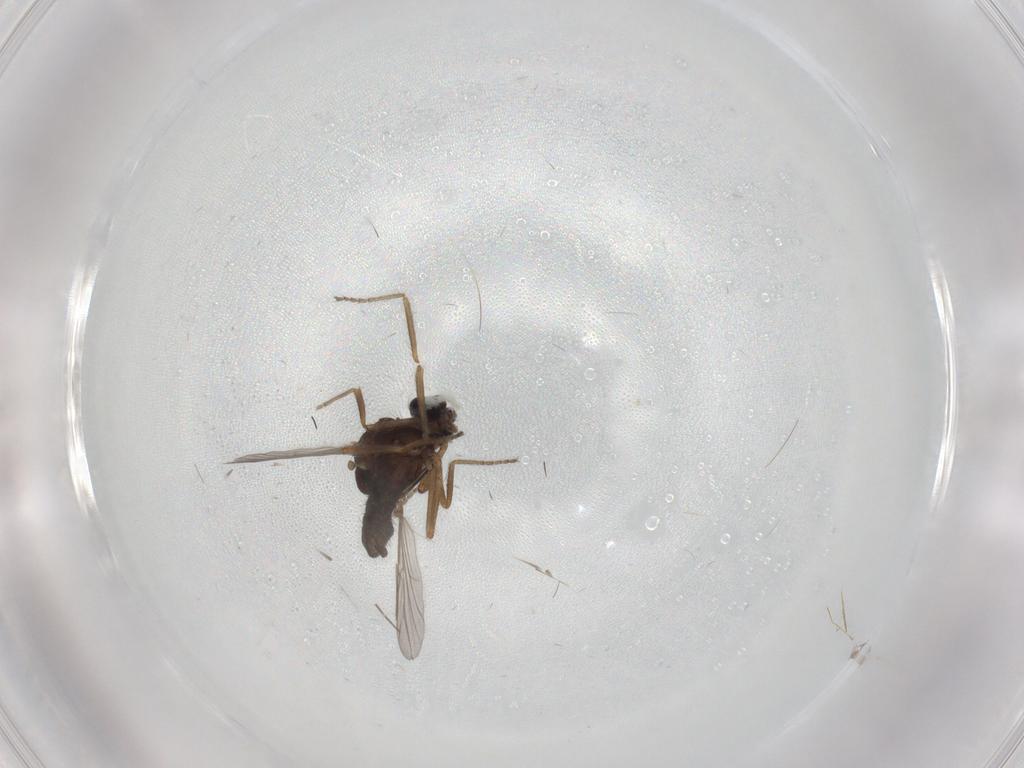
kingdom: Animalia
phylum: Arthropoda
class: Insecta
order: Diptera
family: Ceratopogonidae
